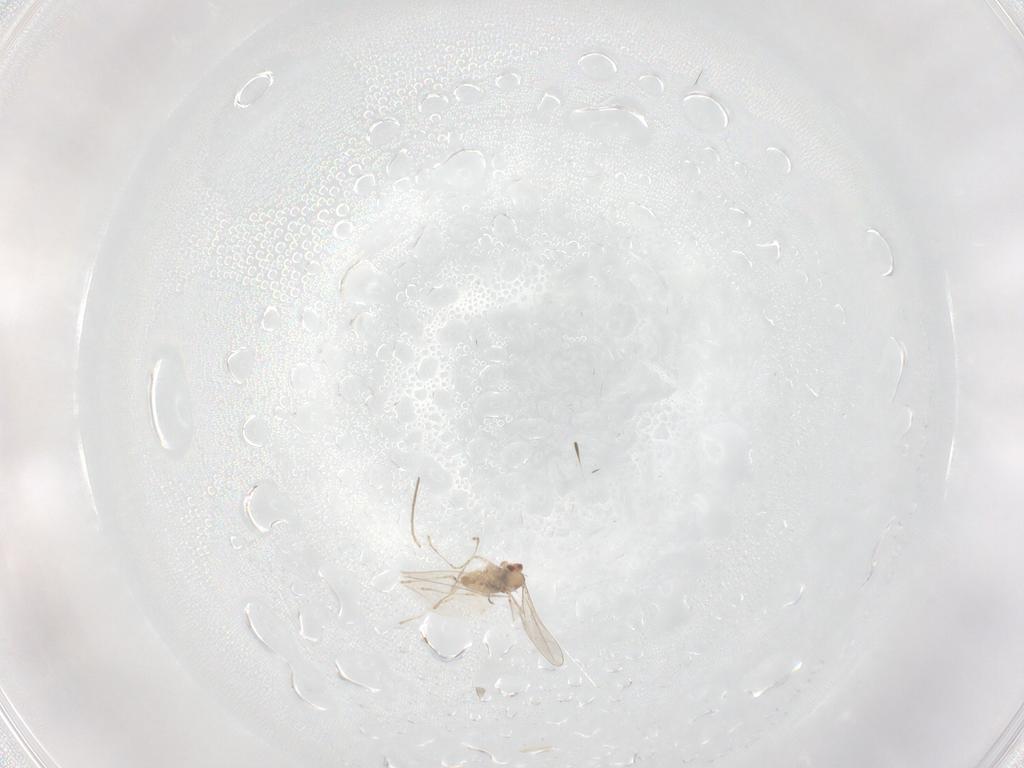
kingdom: Animalia
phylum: Arthropoda
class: Insecta
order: Diptera
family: Cecidomyiidae
